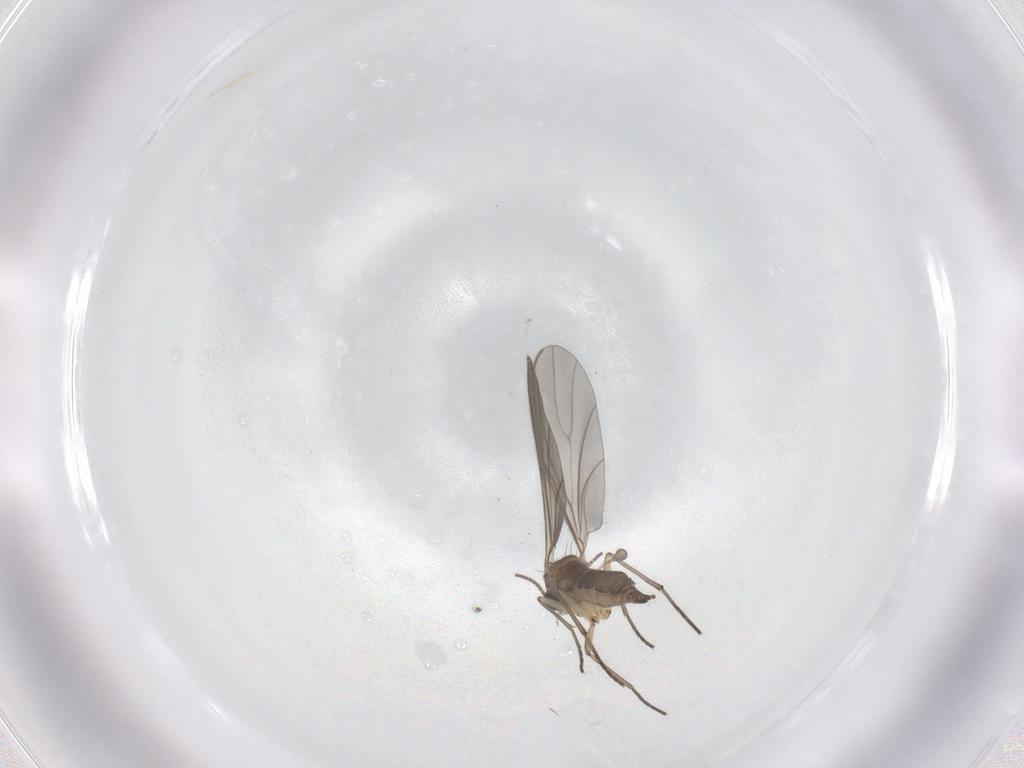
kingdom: Animalia
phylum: Arthropoda
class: Insecta
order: Diptera
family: Sciaridae
